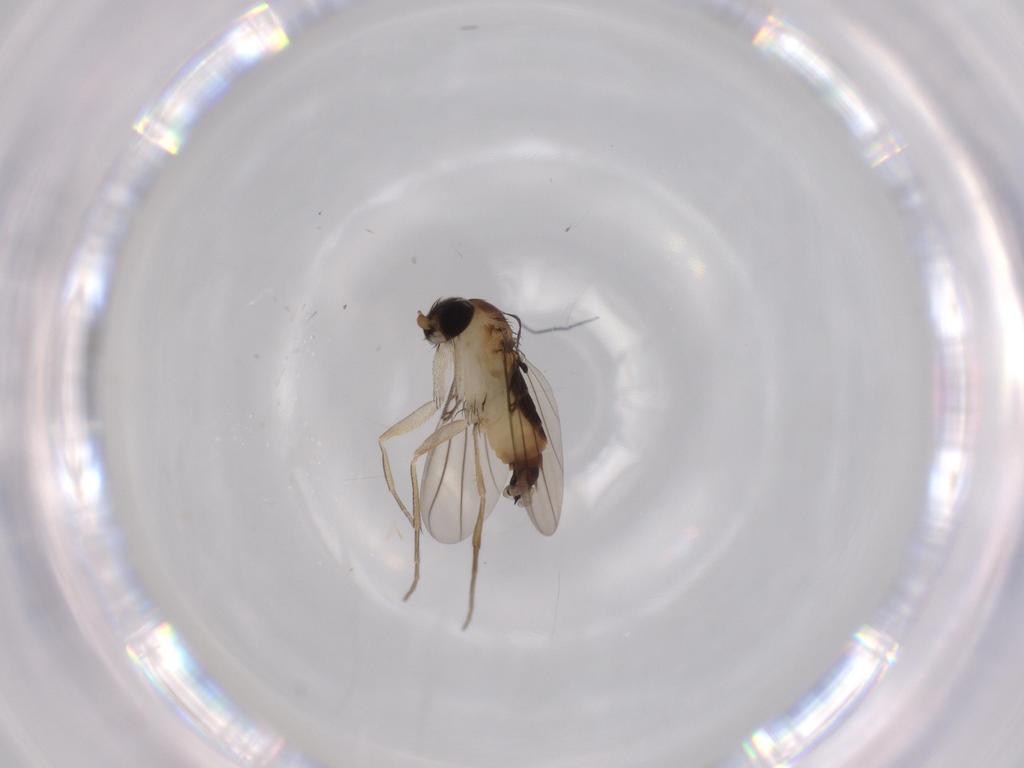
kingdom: Animalia
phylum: Arthropoda
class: Insecta
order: Diptera
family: Phoridae
